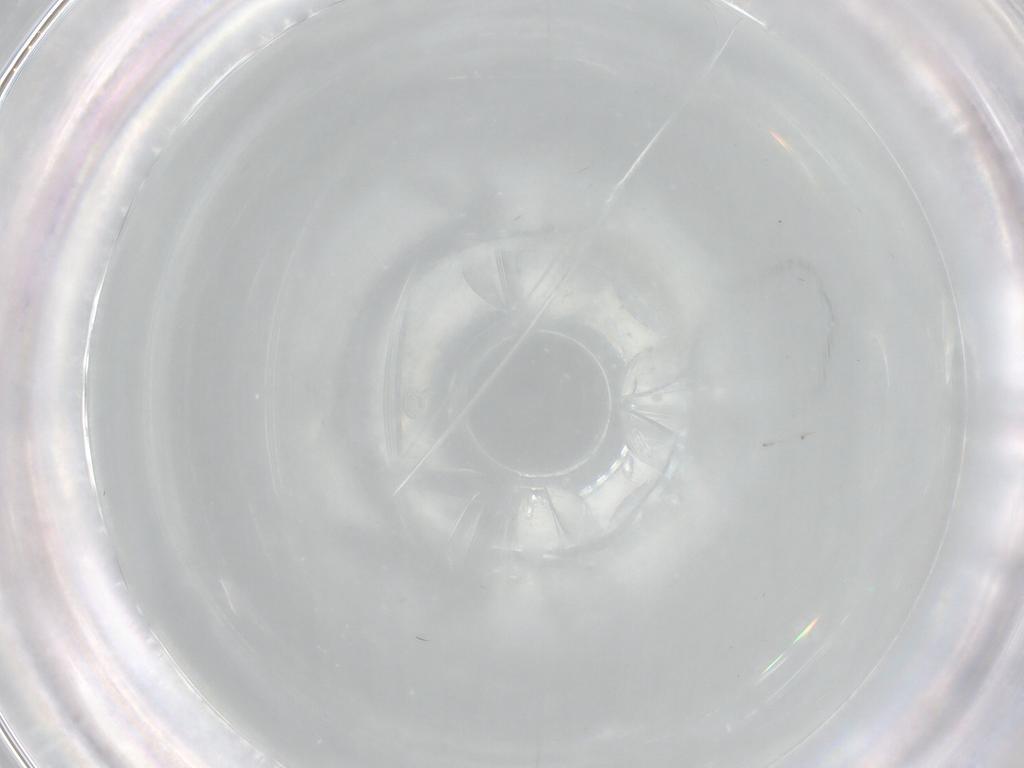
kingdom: Animalia
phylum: Arthropoda
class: Insecta
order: Diptera
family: Cecidomyiidae
